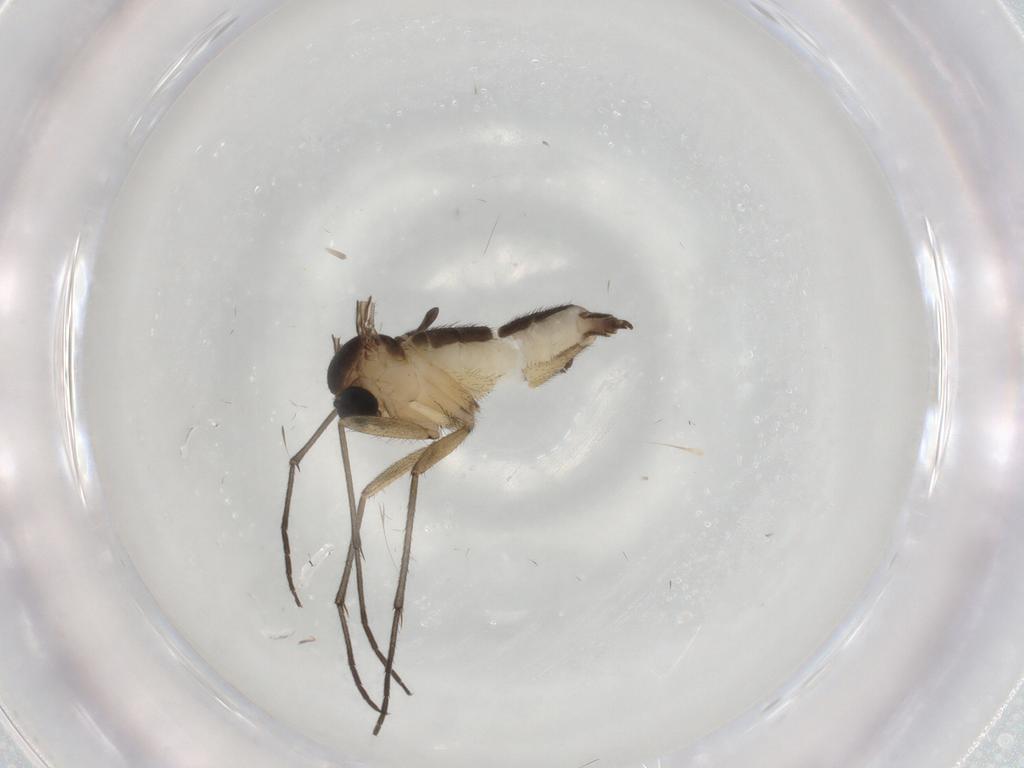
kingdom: Animalia
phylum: Arthropoda
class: Insecta
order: Diptera
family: Sciaridae
